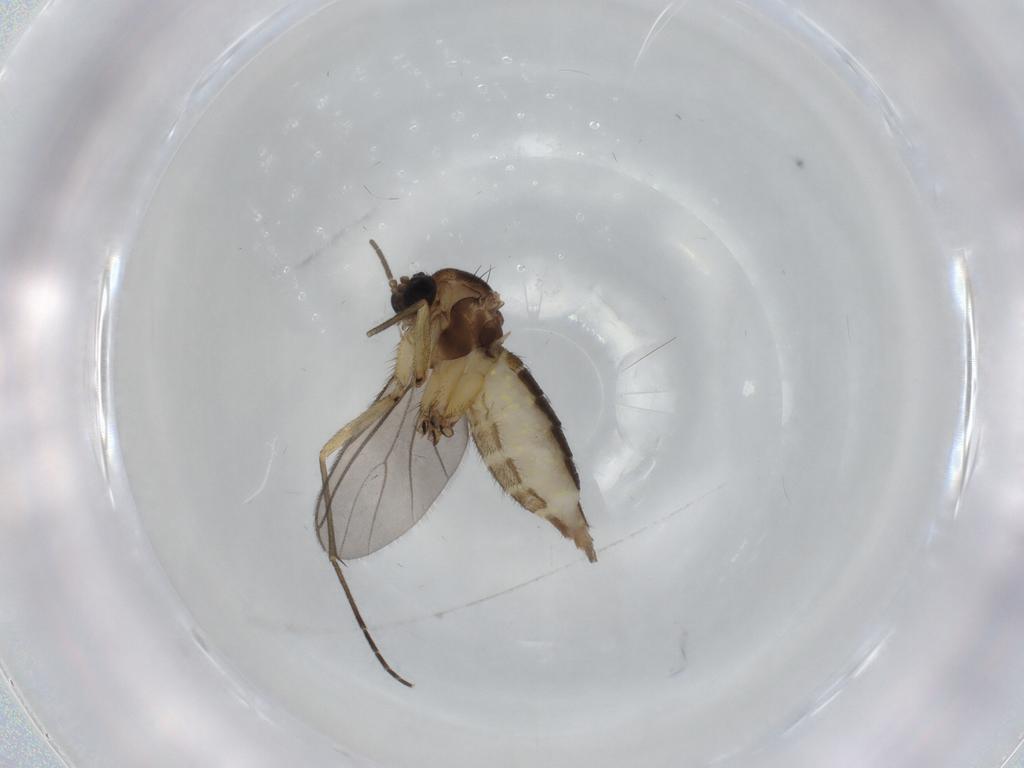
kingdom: Animalia
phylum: Arthropoda
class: Insecta
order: Diptera
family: Sciaridae
